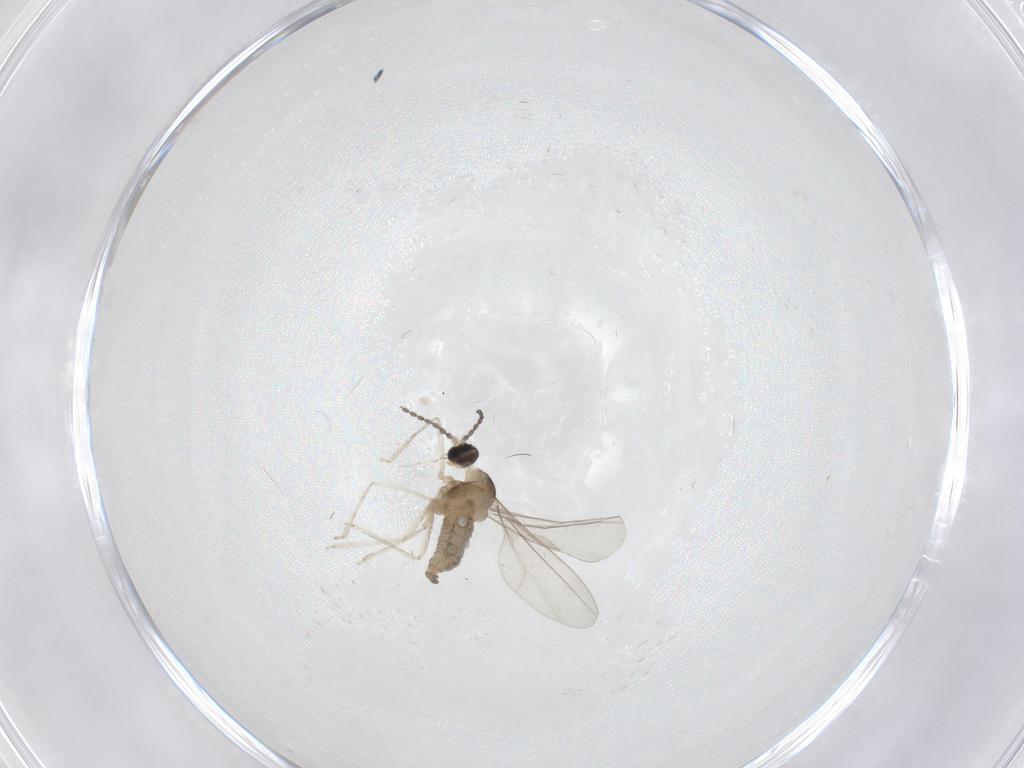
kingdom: Animalia
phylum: Arthropoda
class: Insecta
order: Diptera
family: Cecidomyiidae
